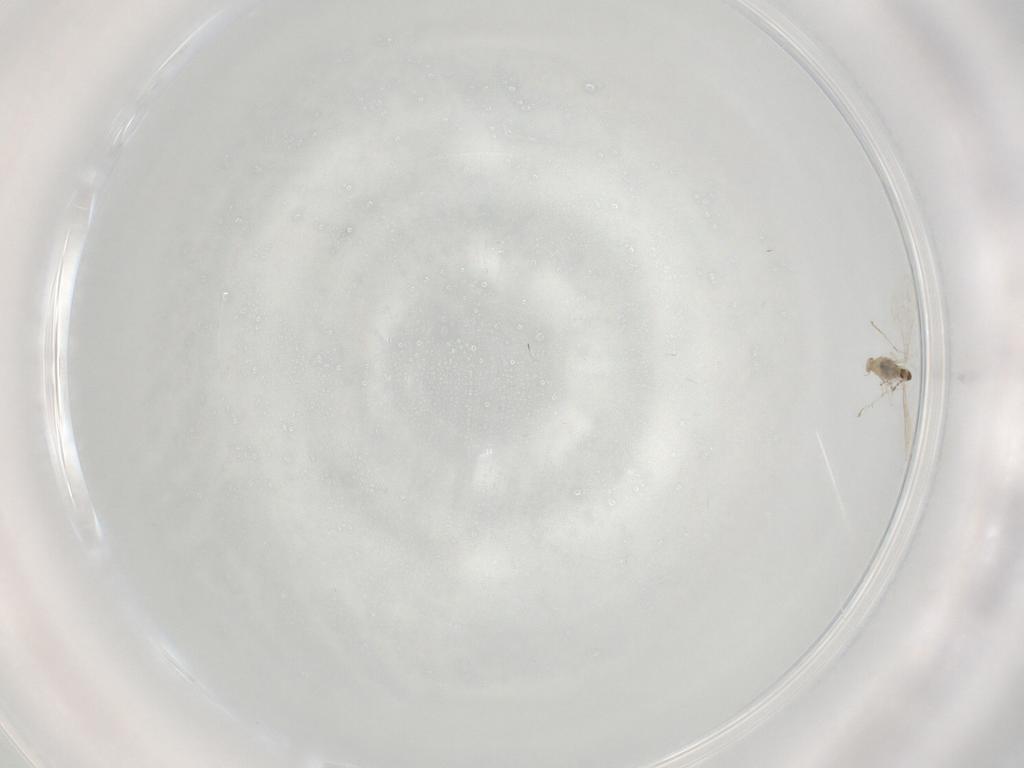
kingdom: Animalia
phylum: Arthropoda
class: Insecta
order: Diptera
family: Cecidomyiidae
